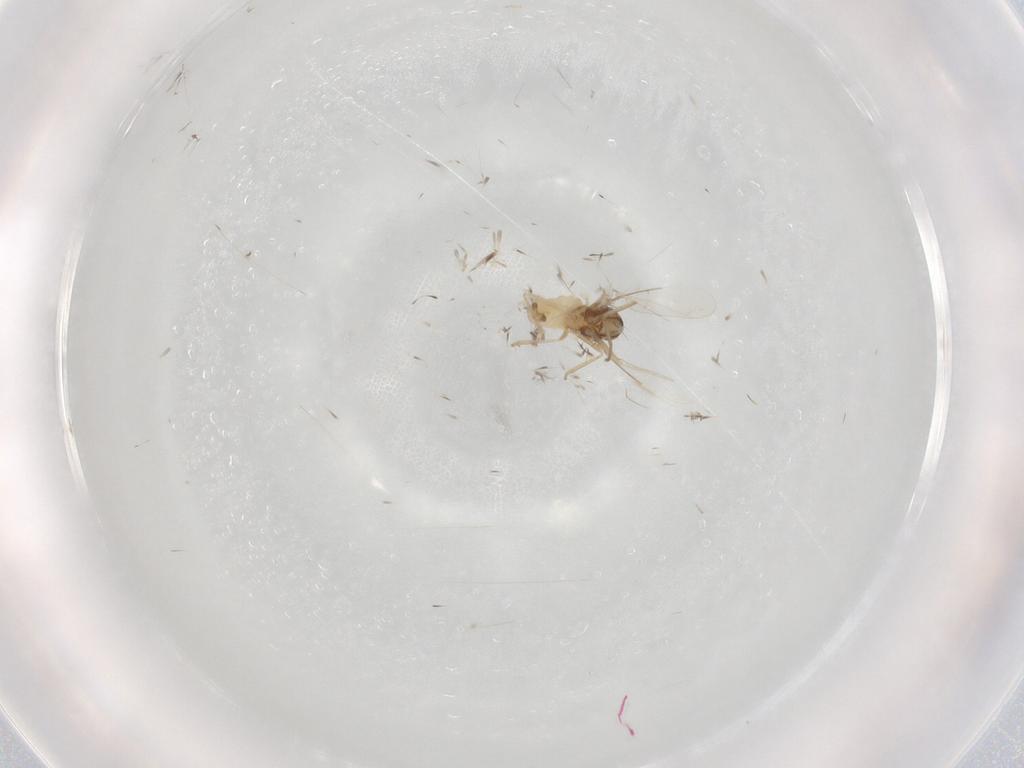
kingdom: Animalia
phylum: Arthropoda
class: Insecta
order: Diptera
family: Cecidomyiidae
